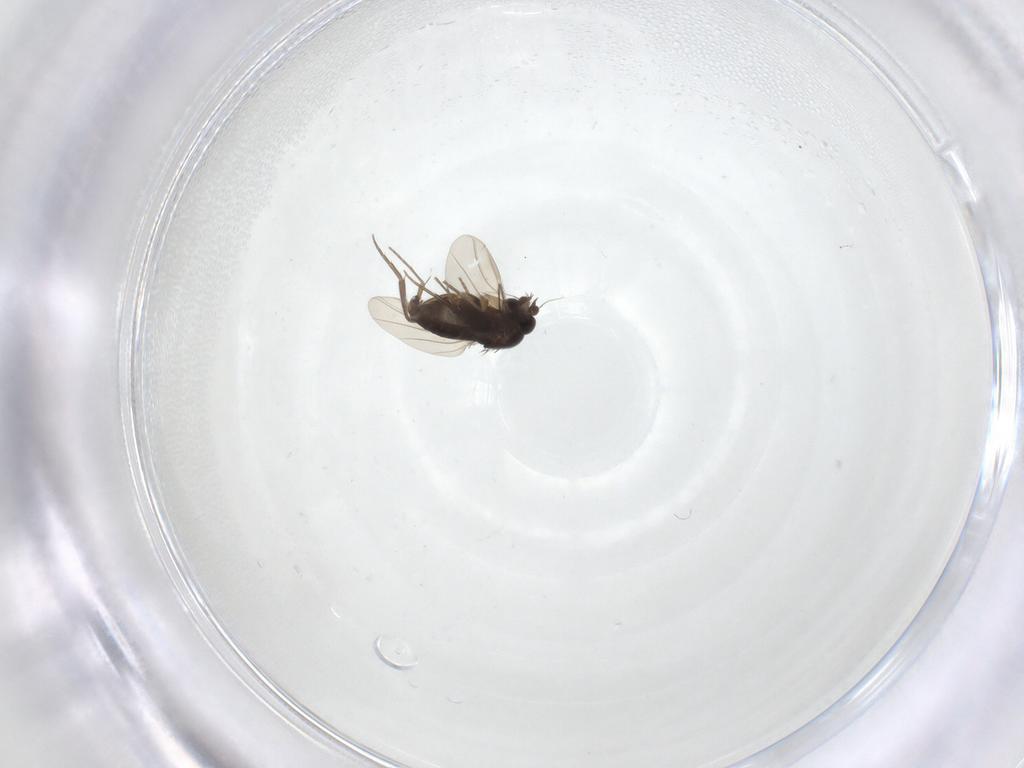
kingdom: Animalia
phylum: Arthropoda
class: Insecta
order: Diptera
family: Phoridae
